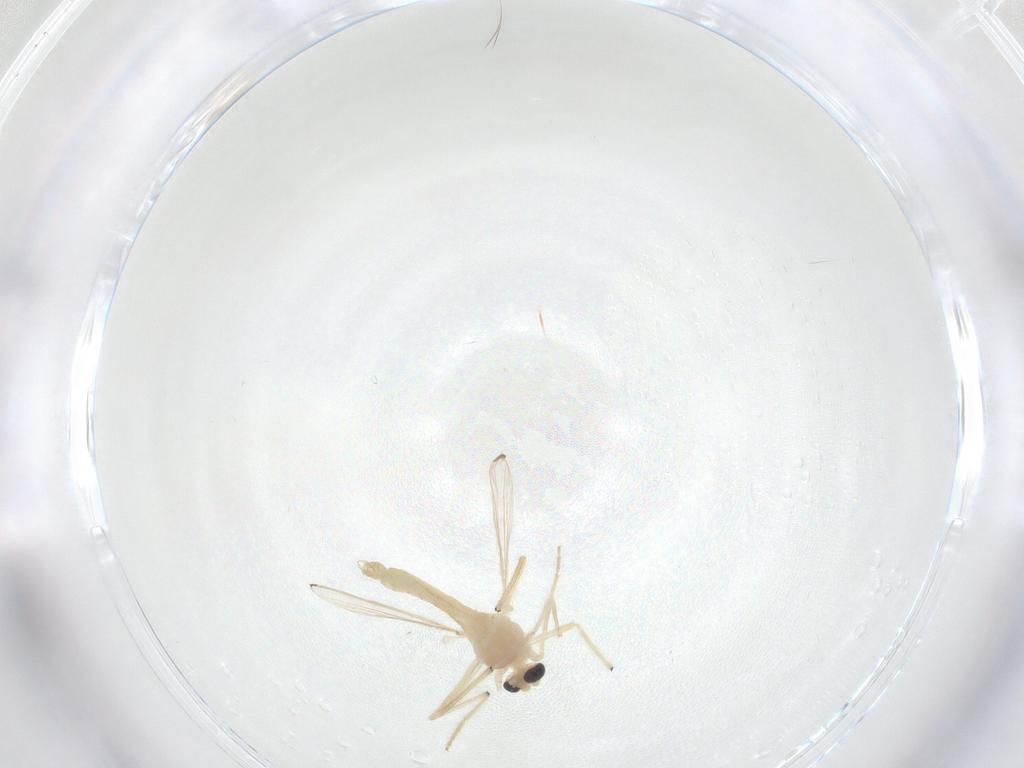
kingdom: Animalia
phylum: Arthropoda
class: Insecta
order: Diptera
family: Chironomidae
